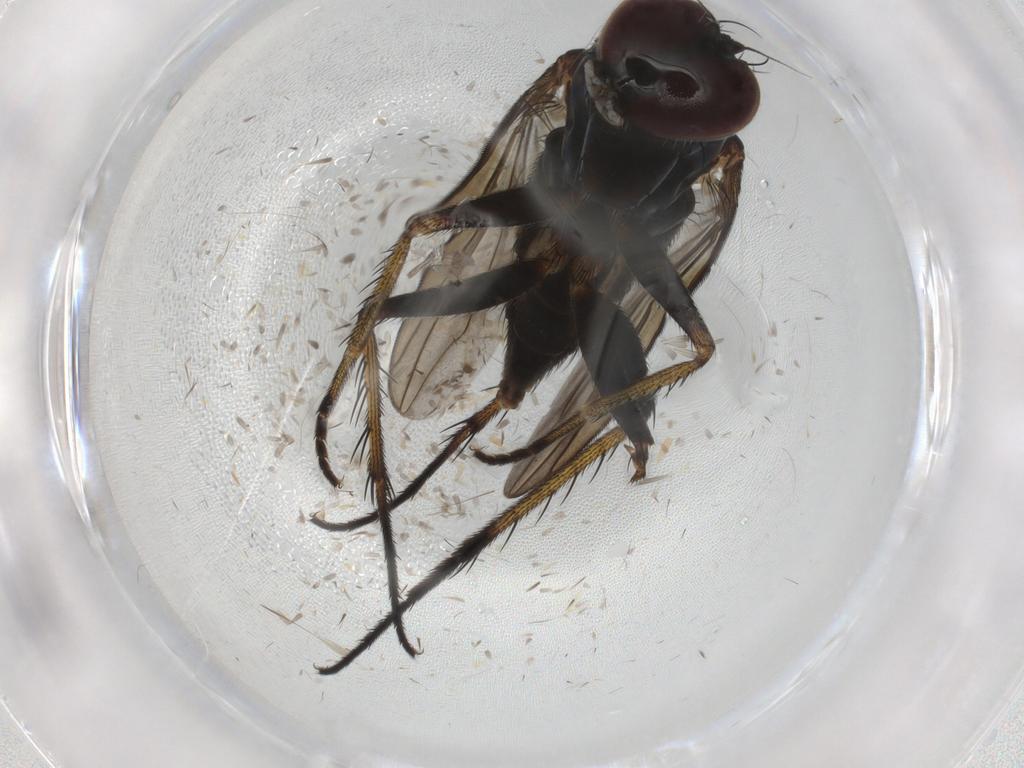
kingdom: Animalia
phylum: Arthropoda
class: Insecta
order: Diptera
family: Dolichopodidae
